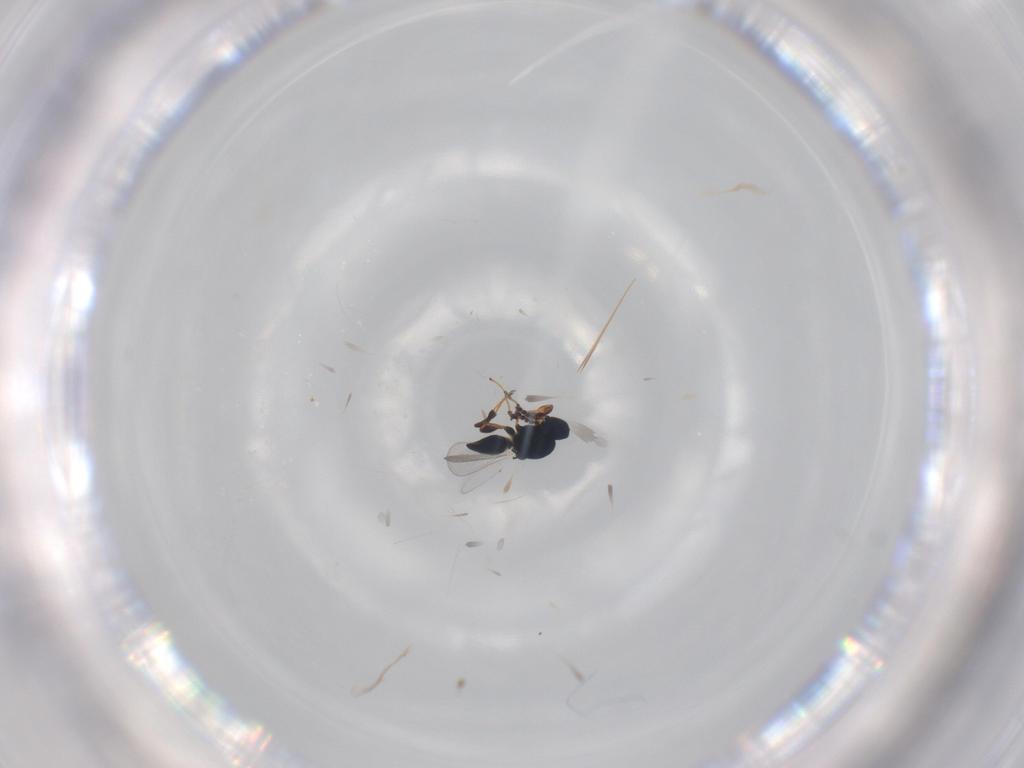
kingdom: Animalia
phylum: Arthropoda
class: Insecta
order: Hymenoptera
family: Platygastridae
